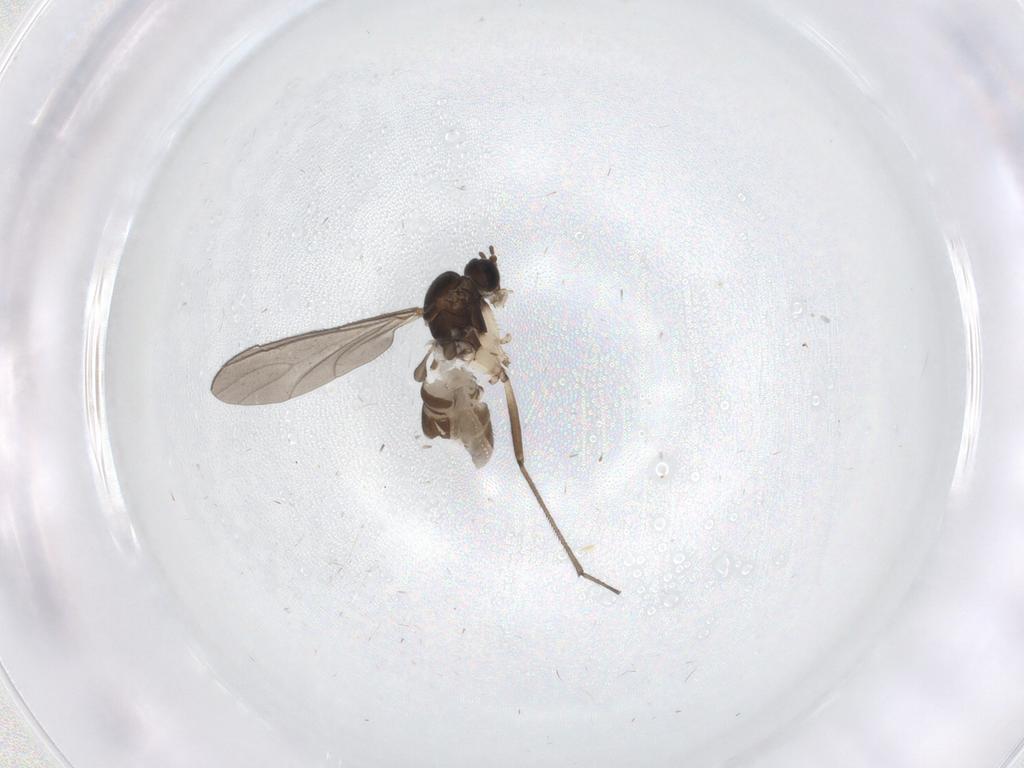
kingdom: Animalia
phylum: Arthropoda
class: Insecta
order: Diptera
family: Sciaridae
